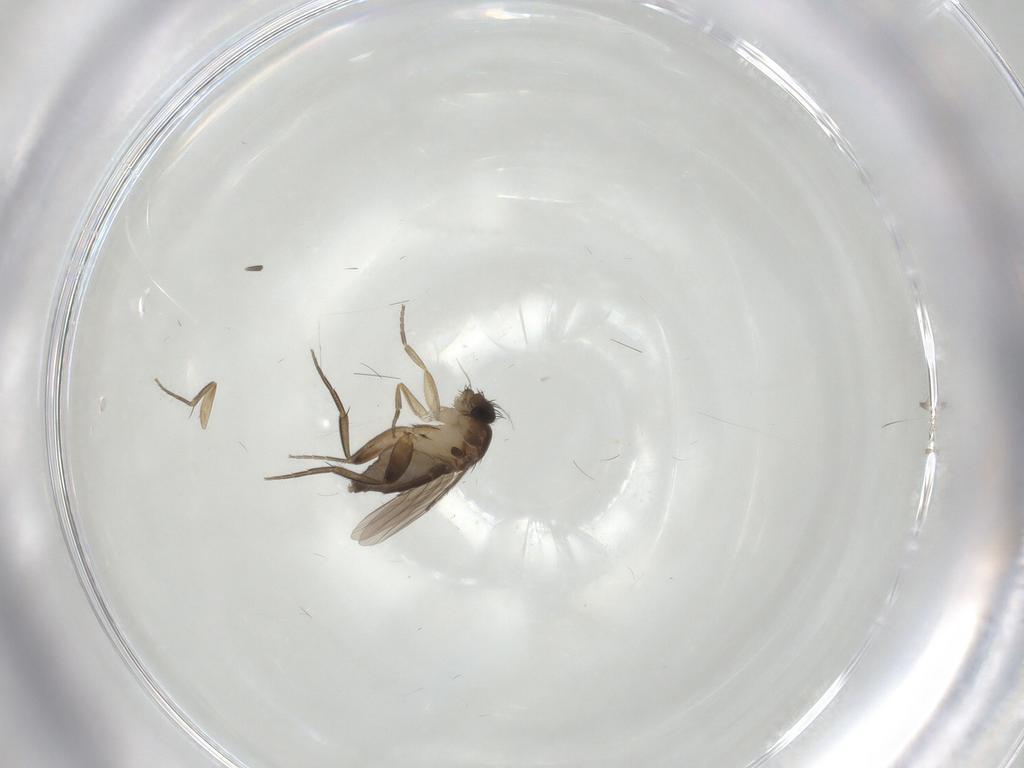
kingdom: Animalia
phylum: Arthropoda
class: Insecta
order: Diptera
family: Phoridae
